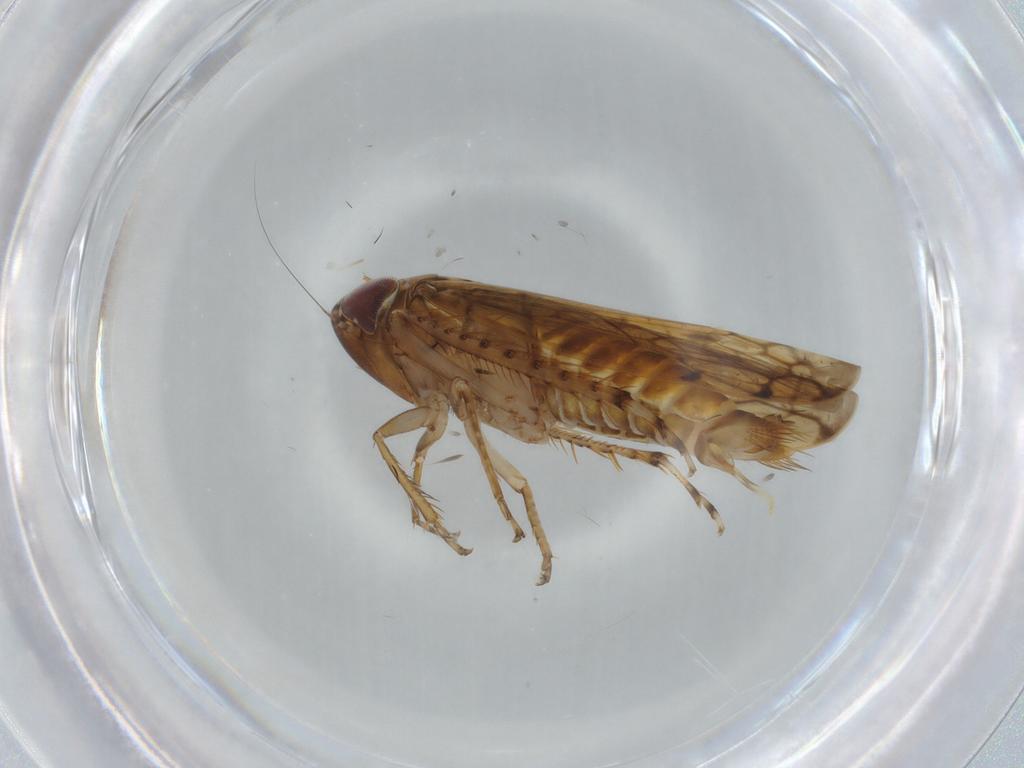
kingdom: Animalia
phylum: Arthropoda
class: Insecta
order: Hemiptera
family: Cicadellidae
